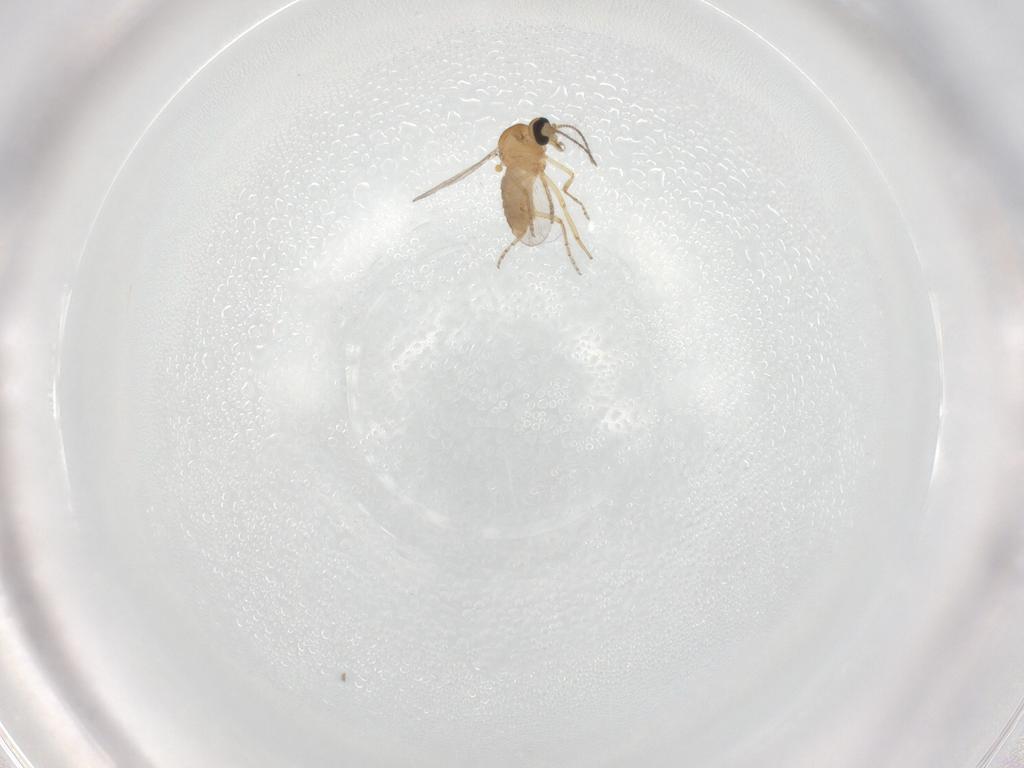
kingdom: Animalia
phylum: Arthropoda
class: Insecta
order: Diptera
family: Ceratopogonidae
